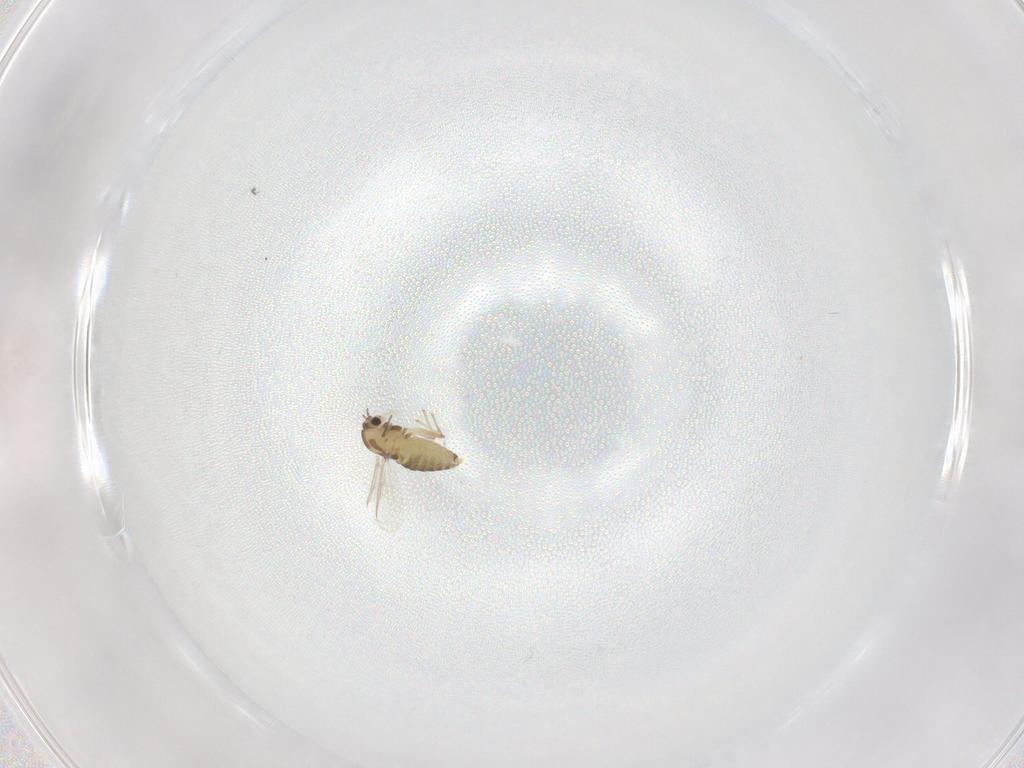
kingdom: Animalia
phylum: Arthropoda
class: Insecta
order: Diptera
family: Chironomidae
